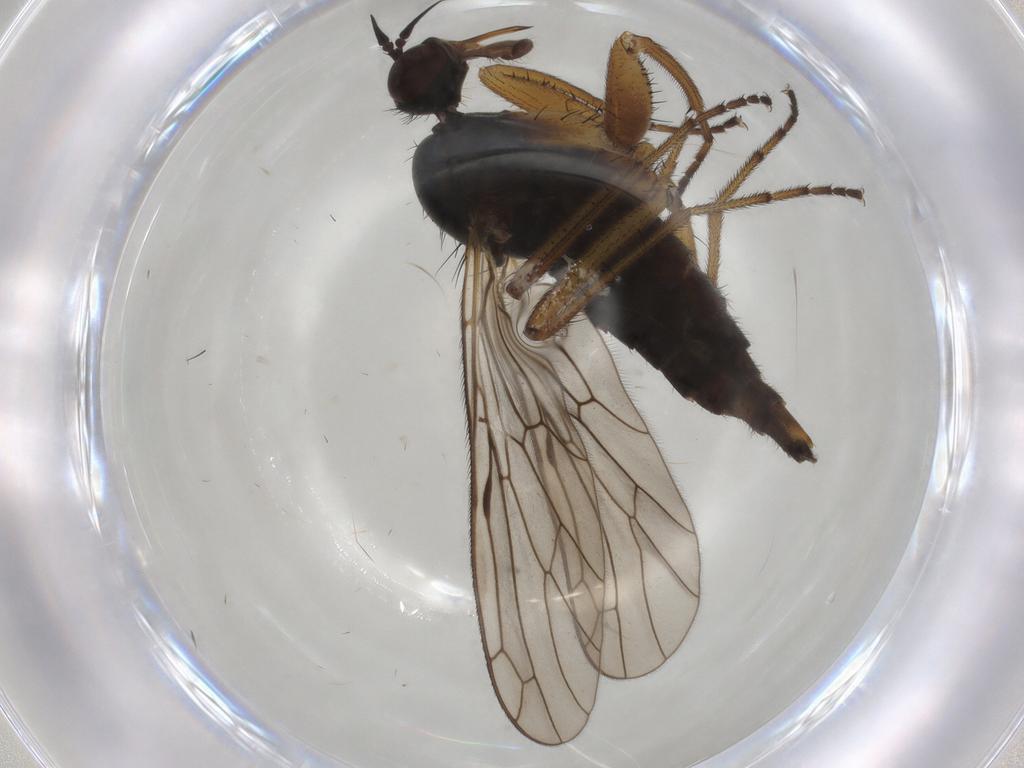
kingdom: Animalia
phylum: Arthropoda
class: Insecta
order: Diptera
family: Empididae
